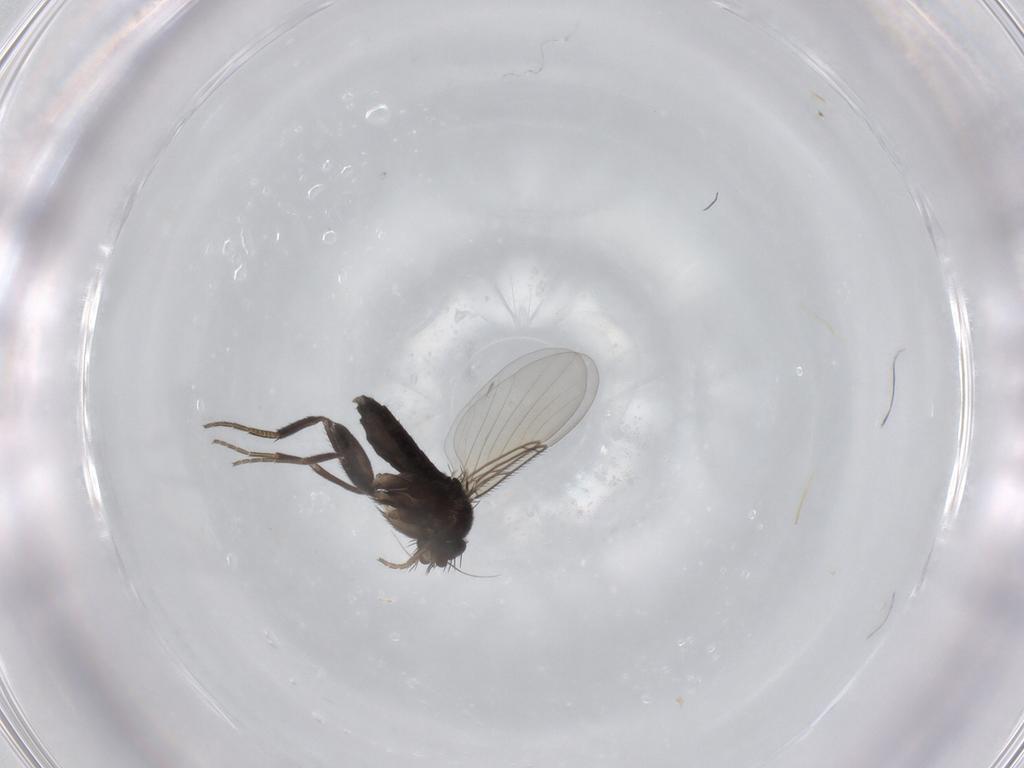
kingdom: Animalia
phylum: Arthropoda
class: Insecta
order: Diptera
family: Phoridae
